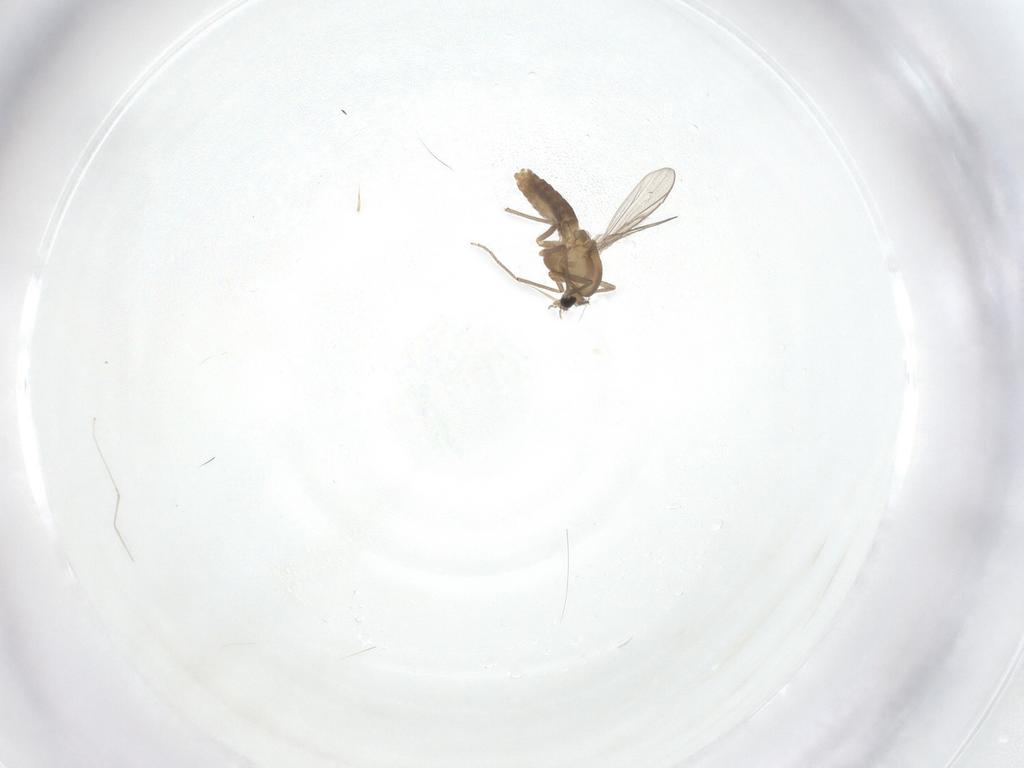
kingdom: Animalia
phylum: Arthropoda
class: Insecta
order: Diptera
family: Chironomidae
